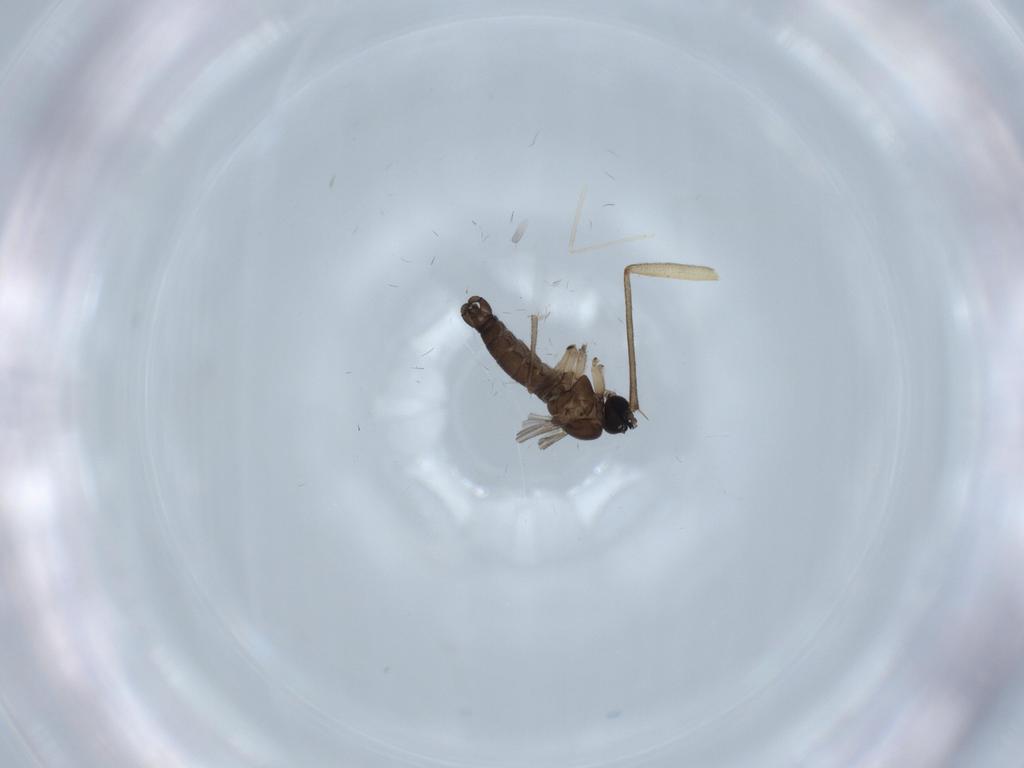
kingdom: Animalia
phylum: Arthropoda
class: Insecta
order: Diptera
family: Sciaridae
